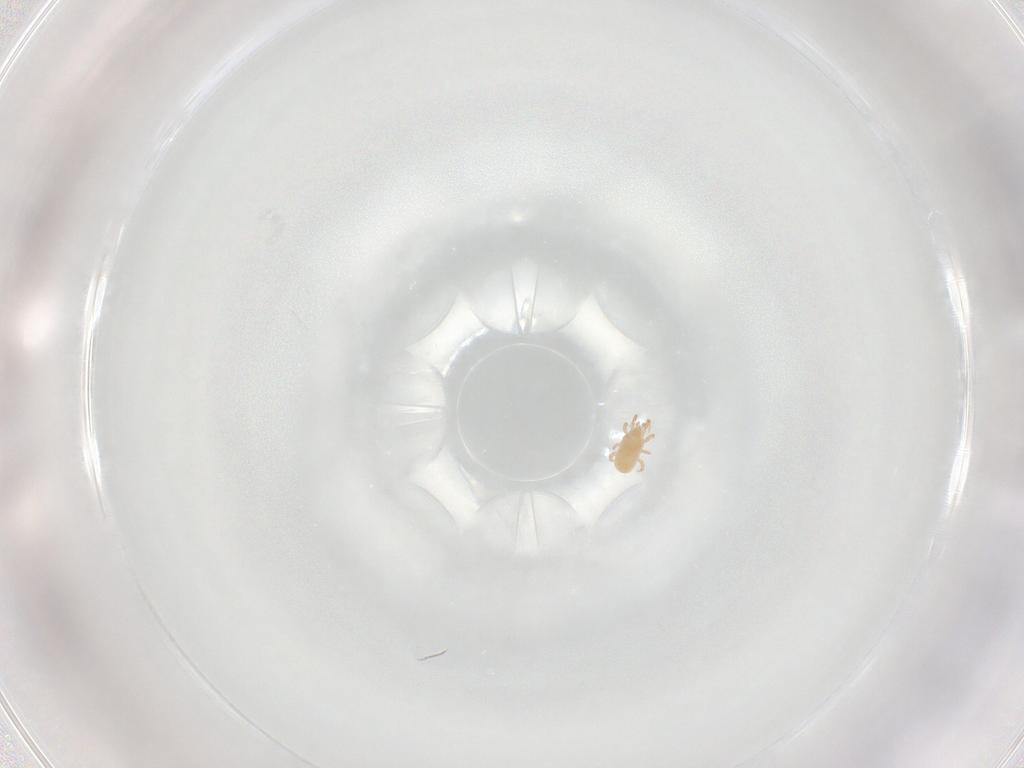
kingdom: Animalia
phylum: Arthropoda
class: Arachnida
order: Mesostigmata
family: Ascidae
